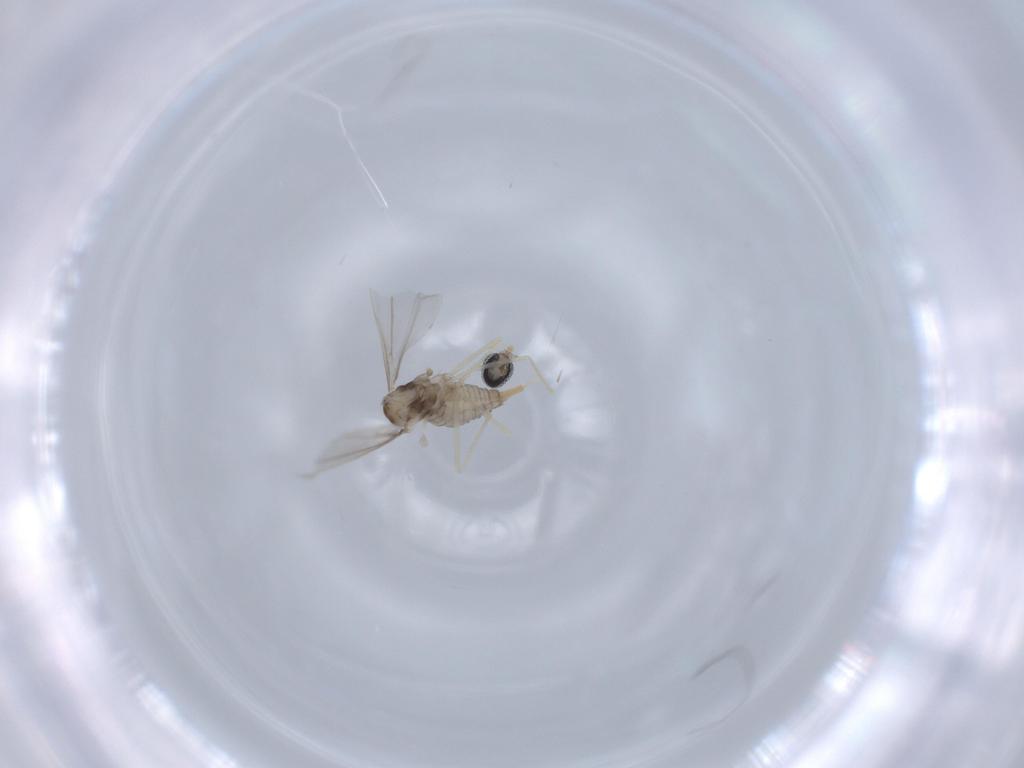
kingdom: Animalia
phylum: Arthropoda
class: Insecta
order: Diptera
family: Cecidomyiidae
